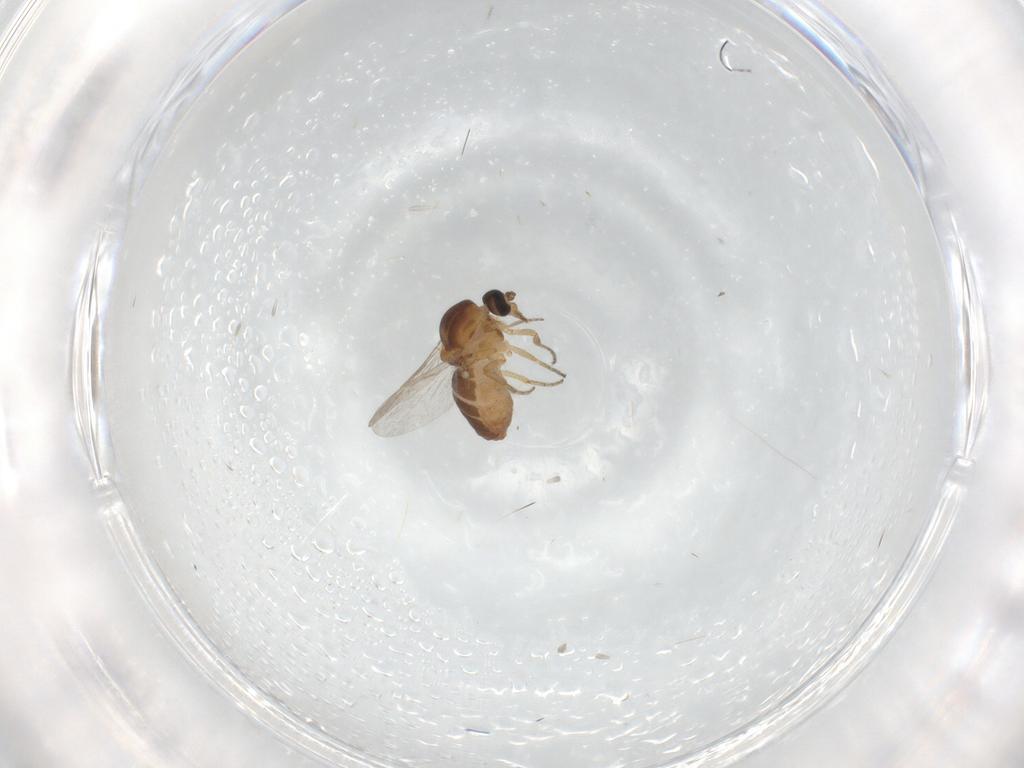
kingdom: Animalia
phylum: Arthropoda
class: Insecta
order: Diptera
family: Ceratopogonidae
